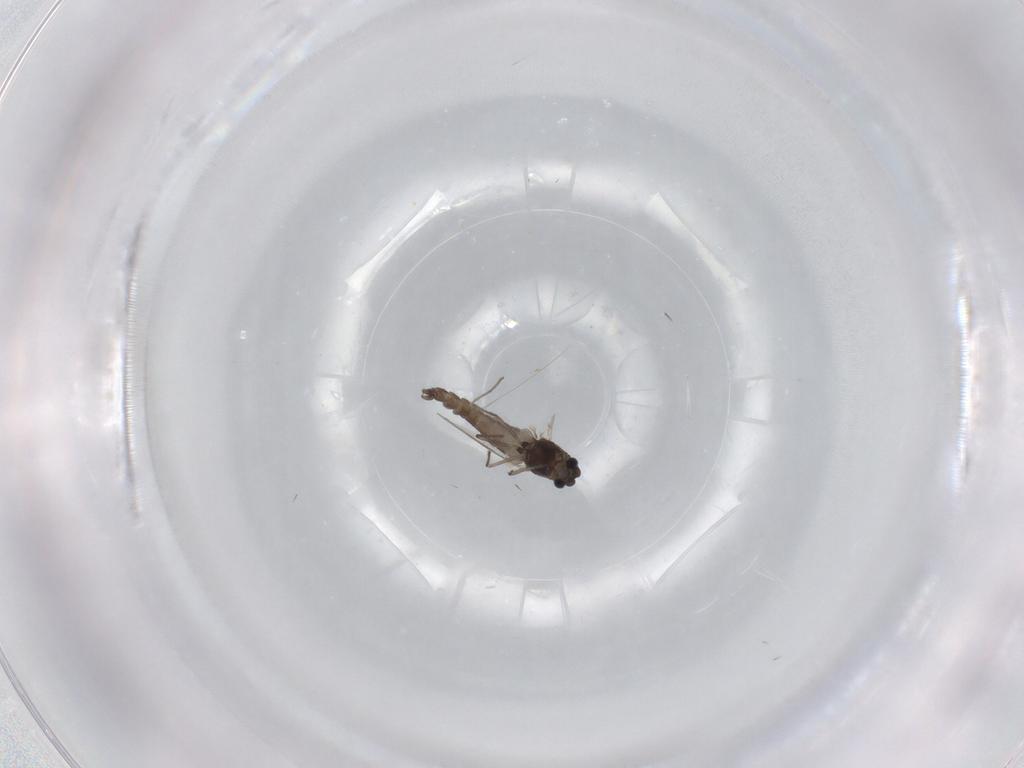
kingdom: Animalia
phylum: Arthropoda
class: Insecta
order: Diptera
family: Chironomidae
